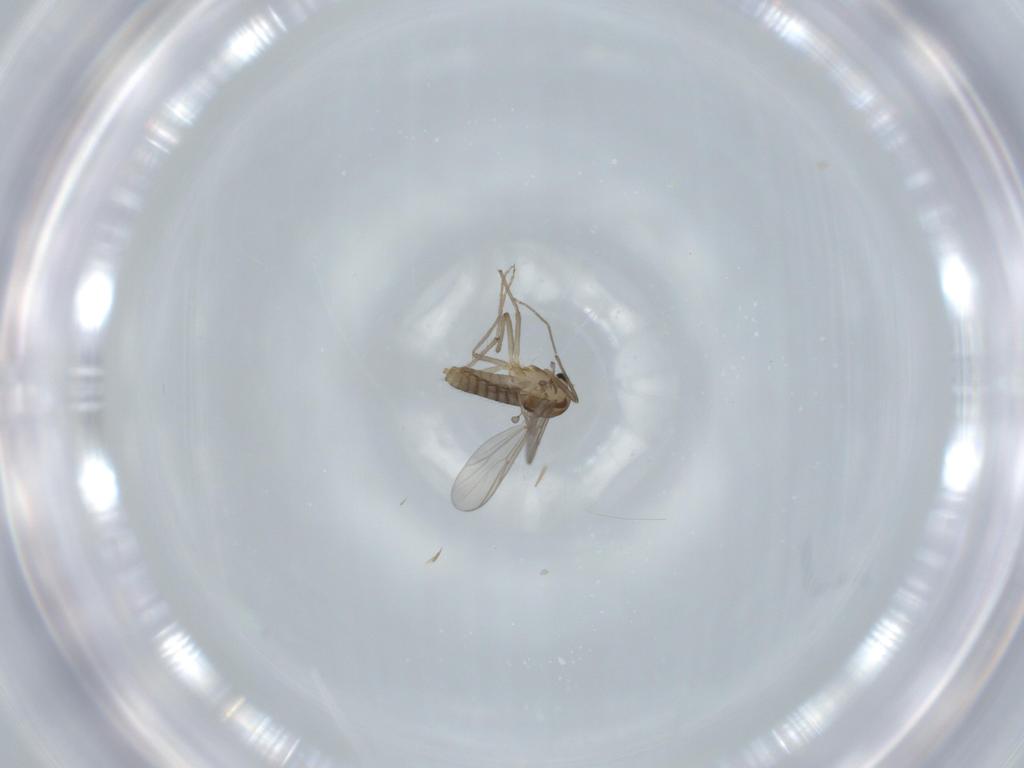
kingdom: Animalia
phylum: Arthropoda
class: Insecta
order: Diptera
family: Chironomidae
